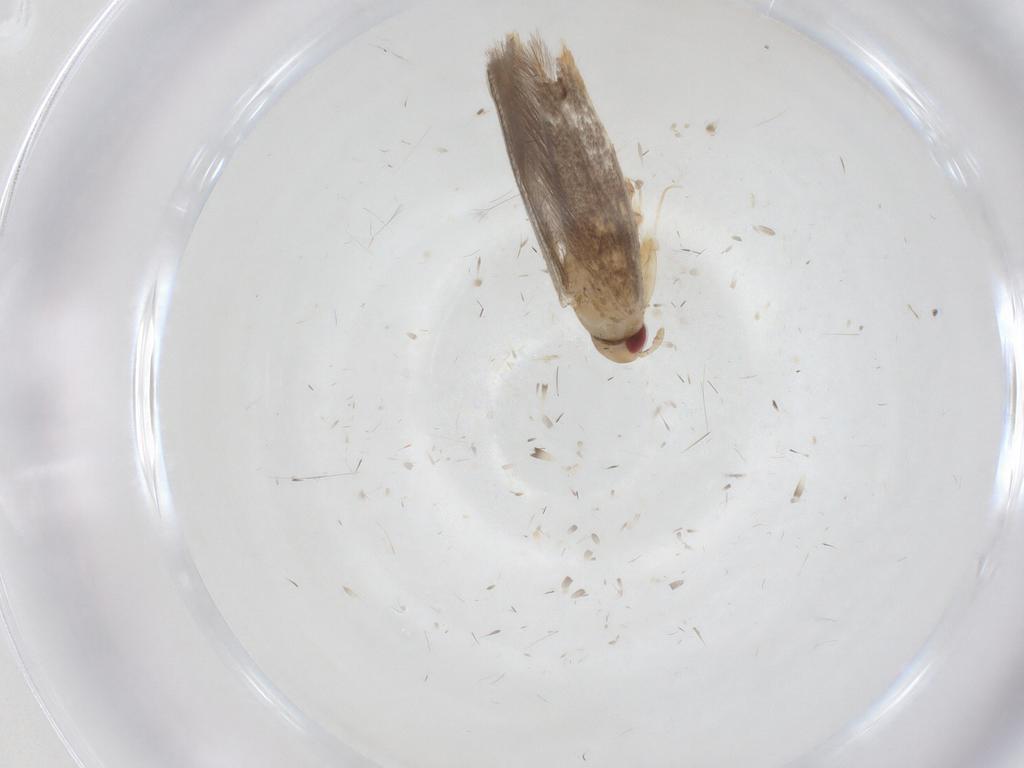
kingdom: Animalia
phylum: Arthropoda
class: Insecta
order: Lepidoptera
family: Cosmopterigidae
